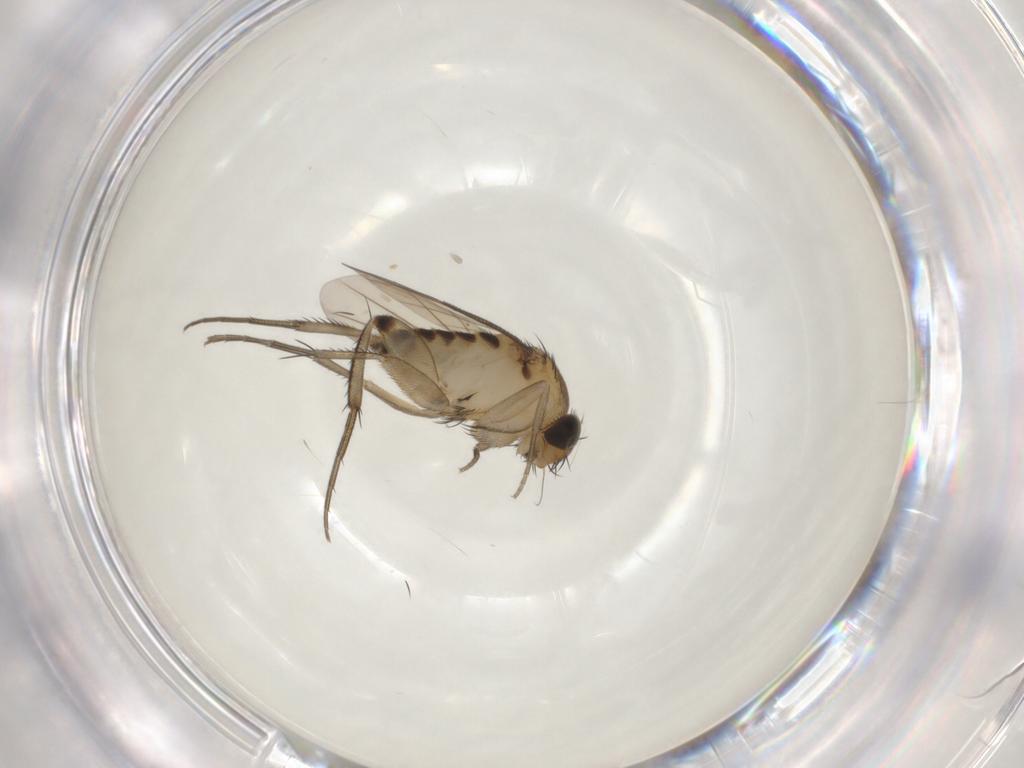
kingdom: Animalia
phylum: Arthropoda
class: Insecta
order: Diptera
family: Phoridae
